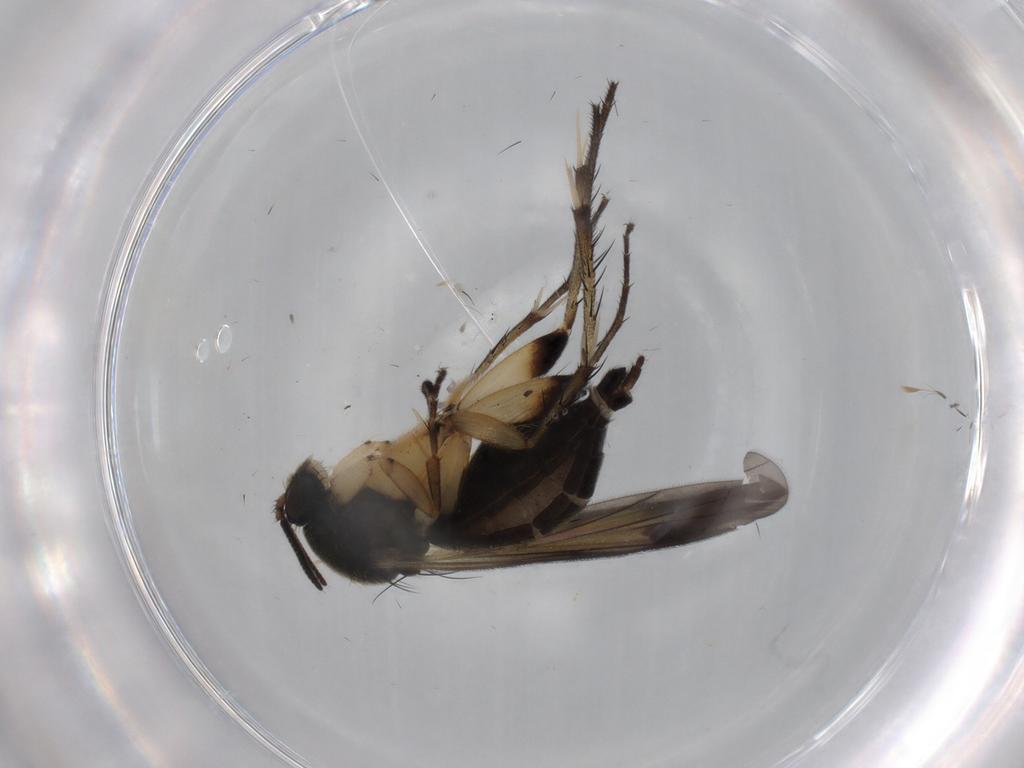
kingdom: Animalia
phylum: Arthropoda
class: Insecta
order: Diptera
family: Mycetophilidae
